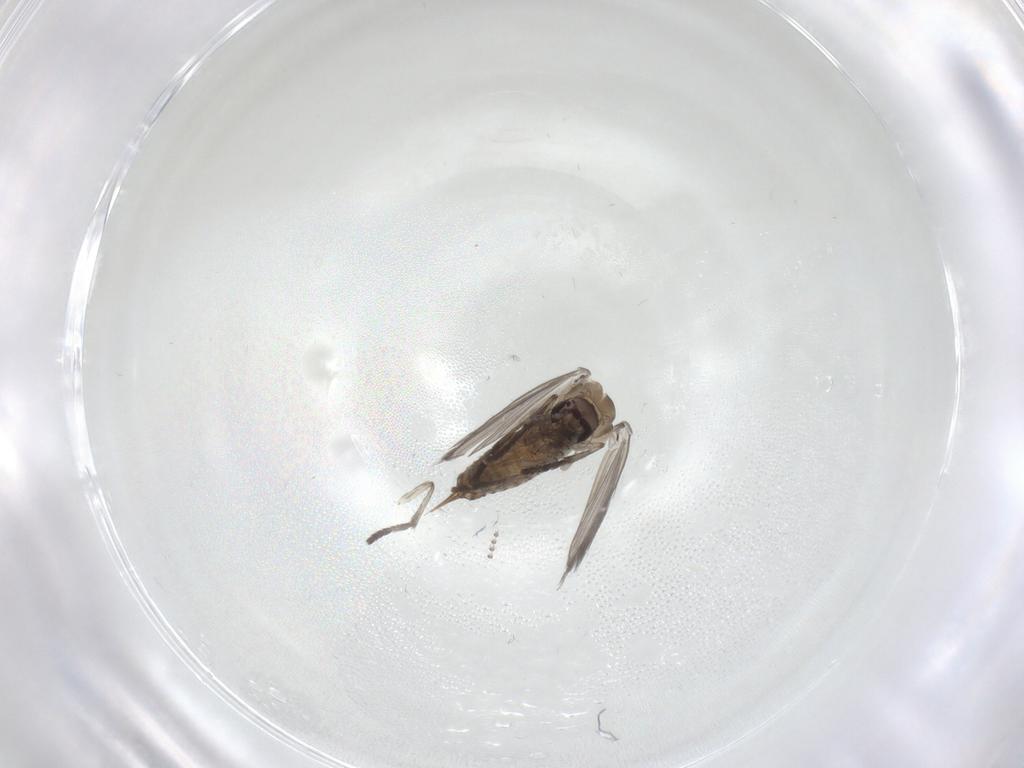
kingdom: Animalia
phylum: Arthropoda
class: Insecta
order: Diptera
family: Psychodidae
